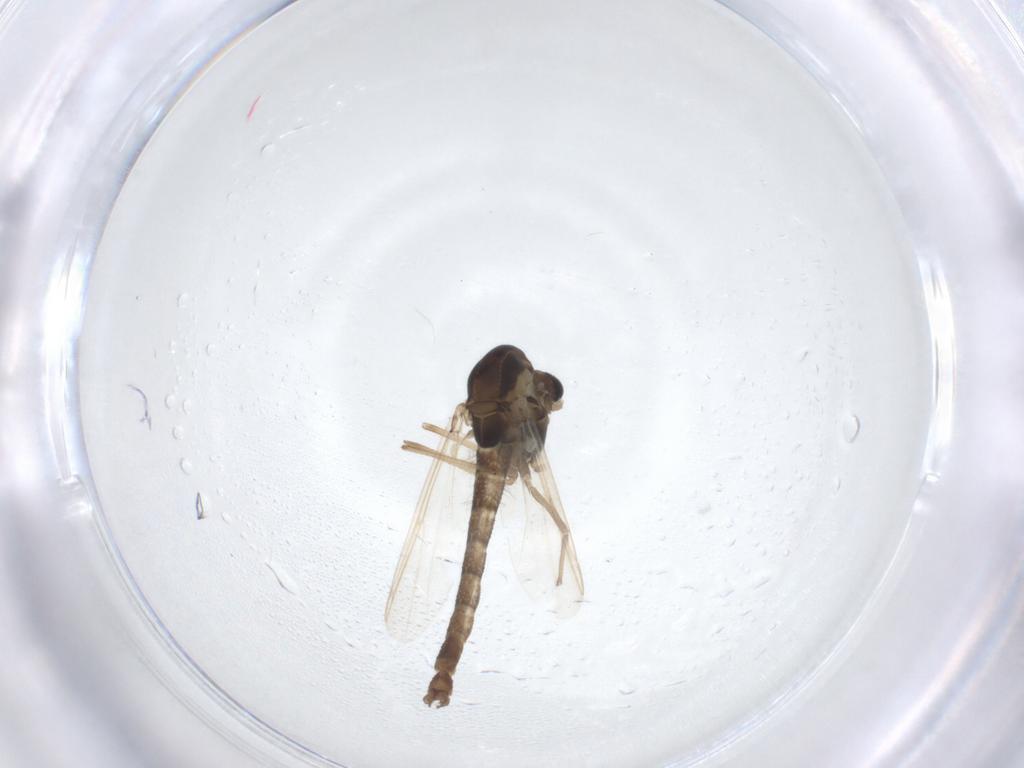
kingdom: Animalia
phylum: Arthropoda
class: Insecta
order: Diptera
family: Chironomidae
